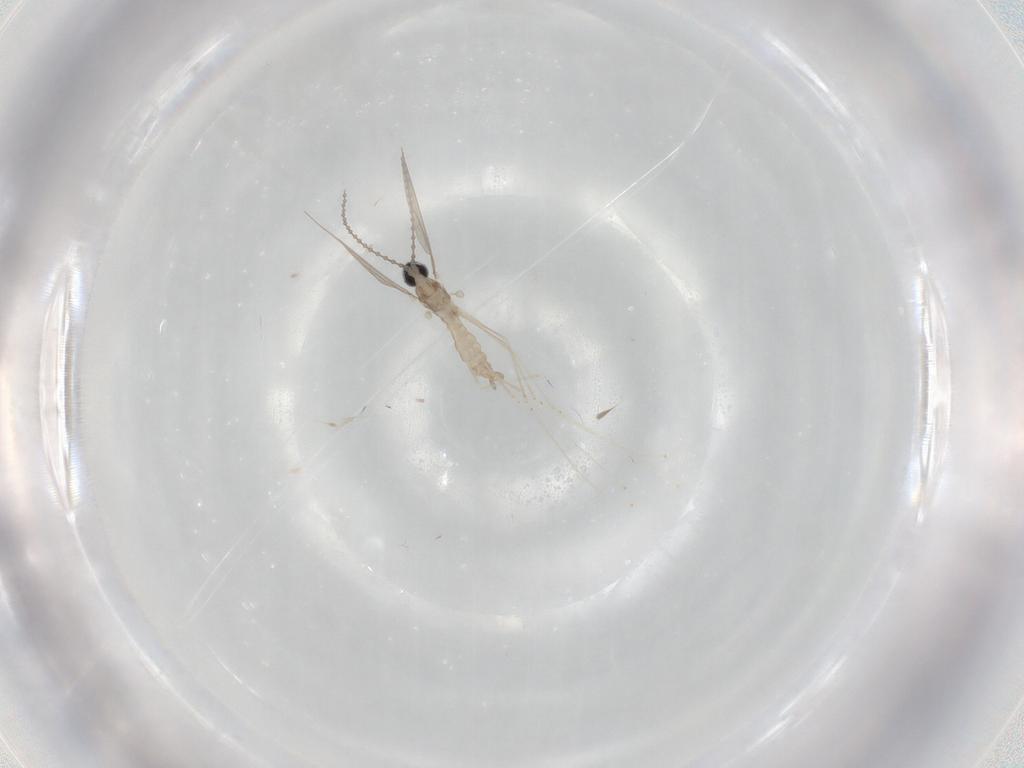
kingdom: Animalia
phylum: Arthropoda
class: Insecta
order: Diptera
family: Cecidomyiidae
